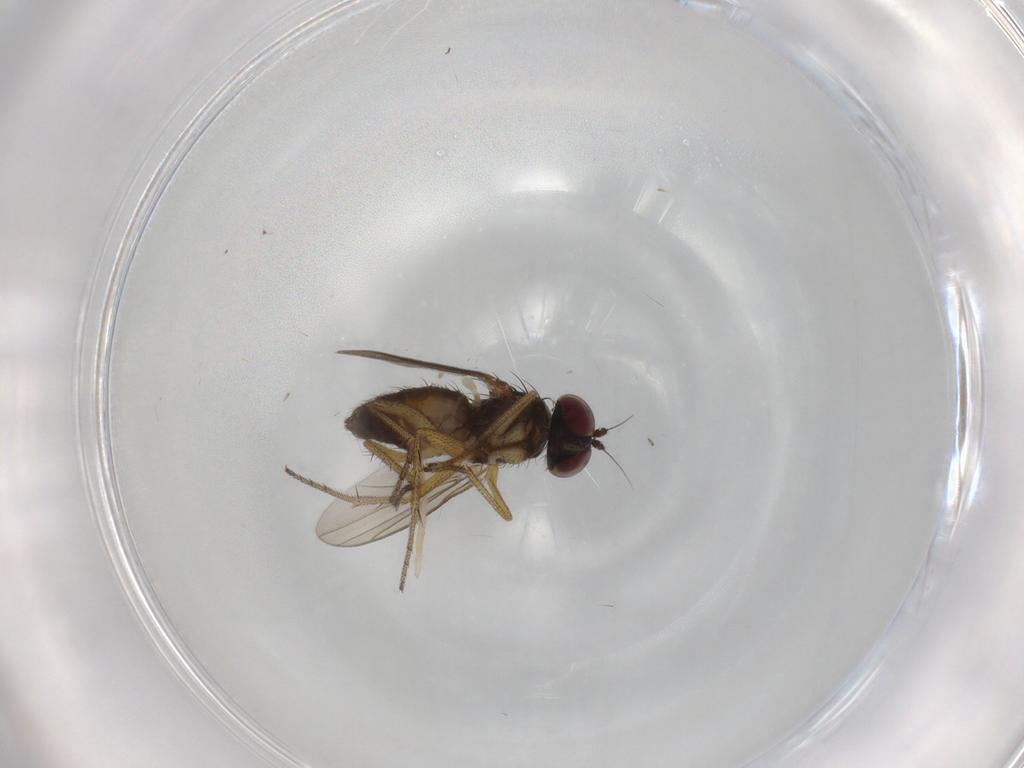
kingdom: Animalia
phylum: Arthropoda
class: Insecta
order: Diptera
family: Dolichopodidae
